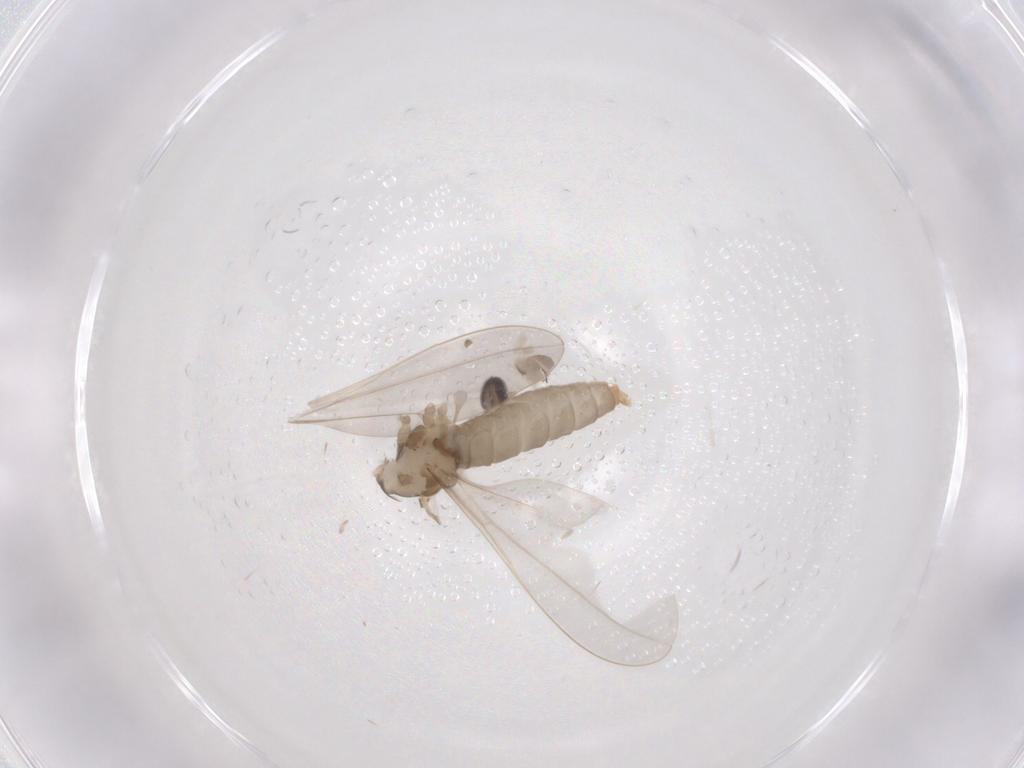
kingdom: Animalia
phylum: Arthropoda
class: Insecta
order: Diptera
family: Cecidomyiidae
